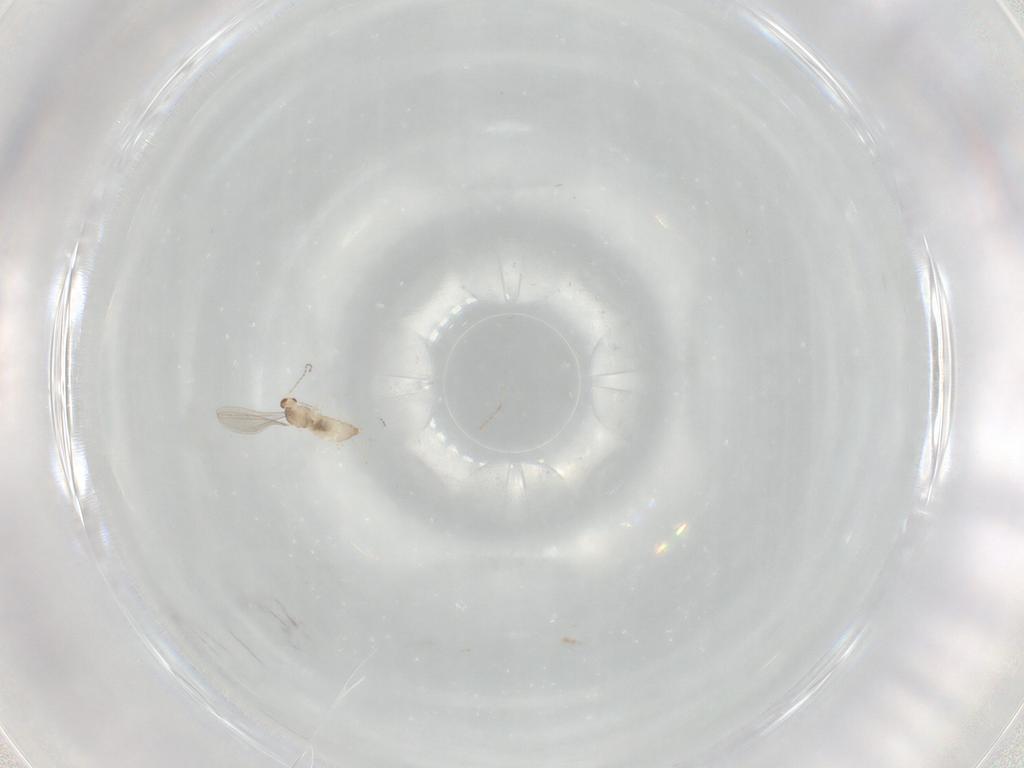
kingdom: Animalia
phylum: Arthropoda
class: Insecta
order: Diptera
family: Cecidomyiidae
